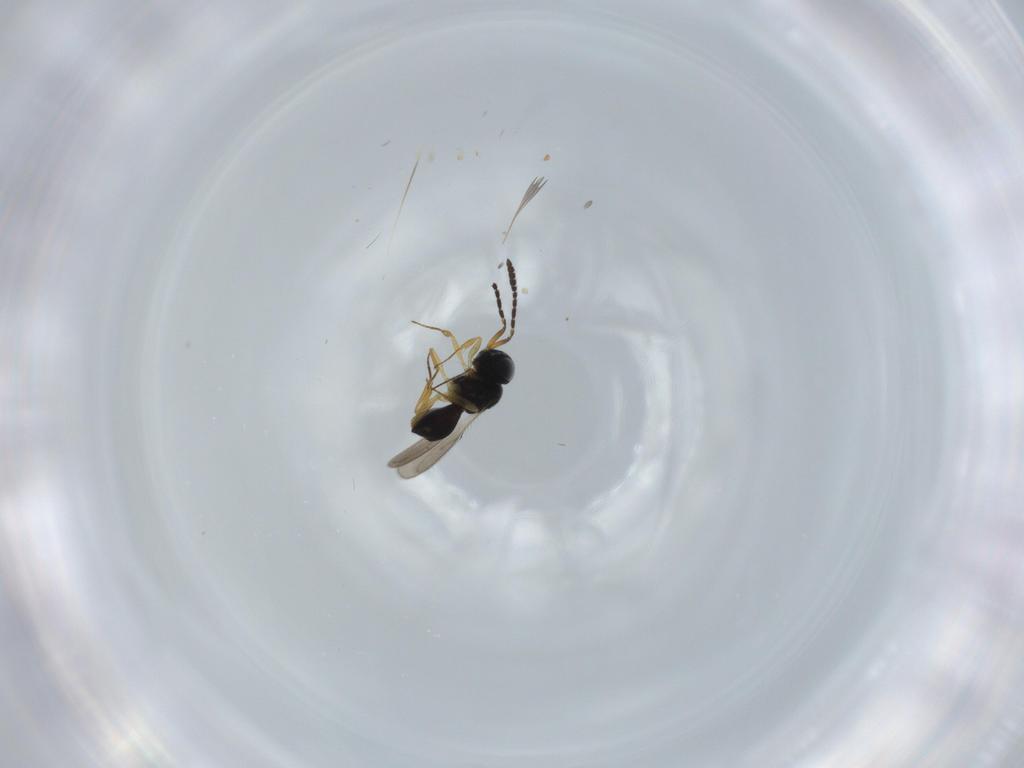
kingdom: Animalia
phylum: Arthropoda
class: Insecta
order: Hymenoptera
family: Scelionidae
